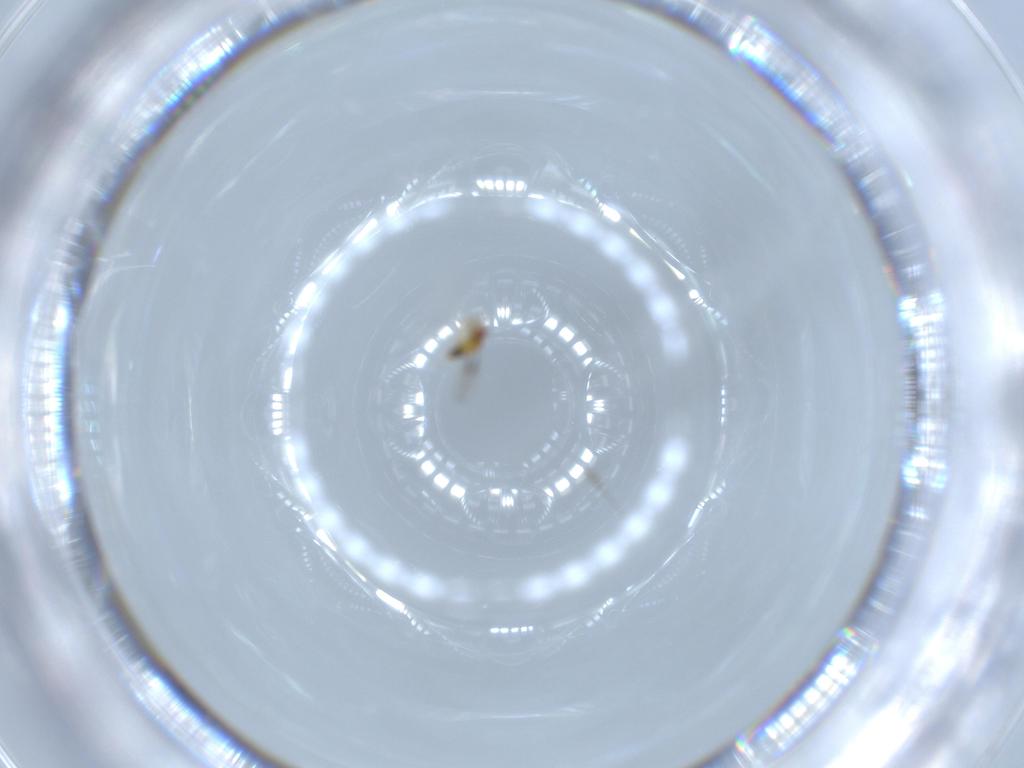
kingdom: Animalia
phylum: Arthropoda
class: Insecta
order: Hymenoptera
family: Trichogrammatidae
